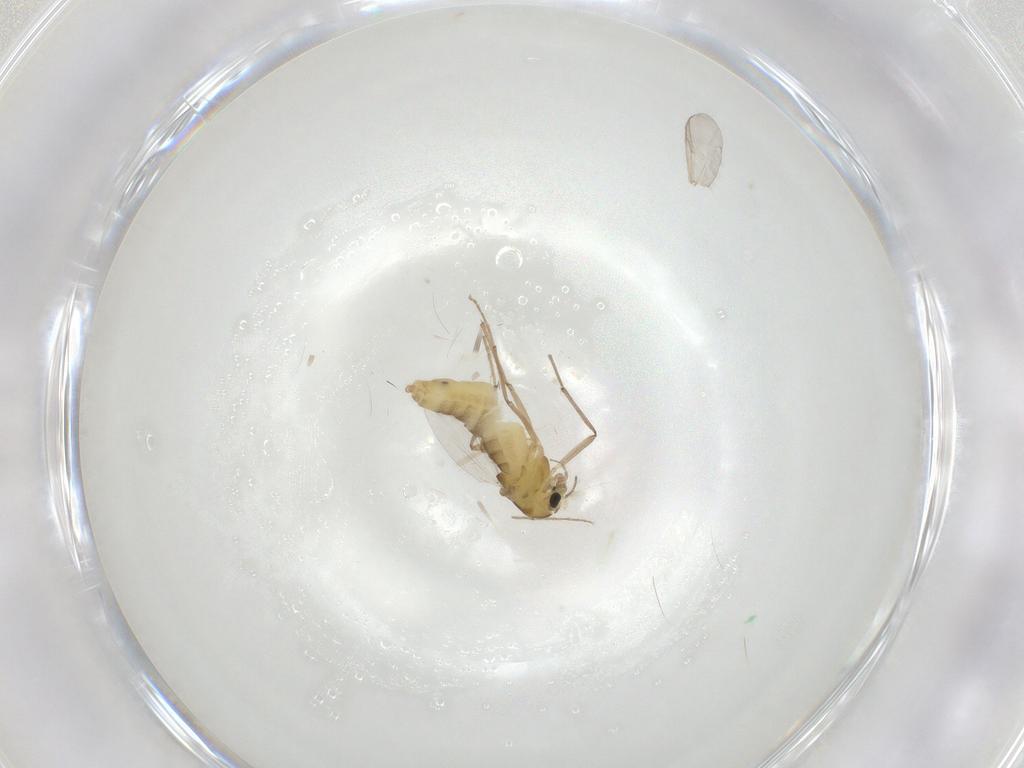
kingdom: Animalia
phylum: Arthropoda
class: Insecta
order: Diptera
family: Chironomidae
